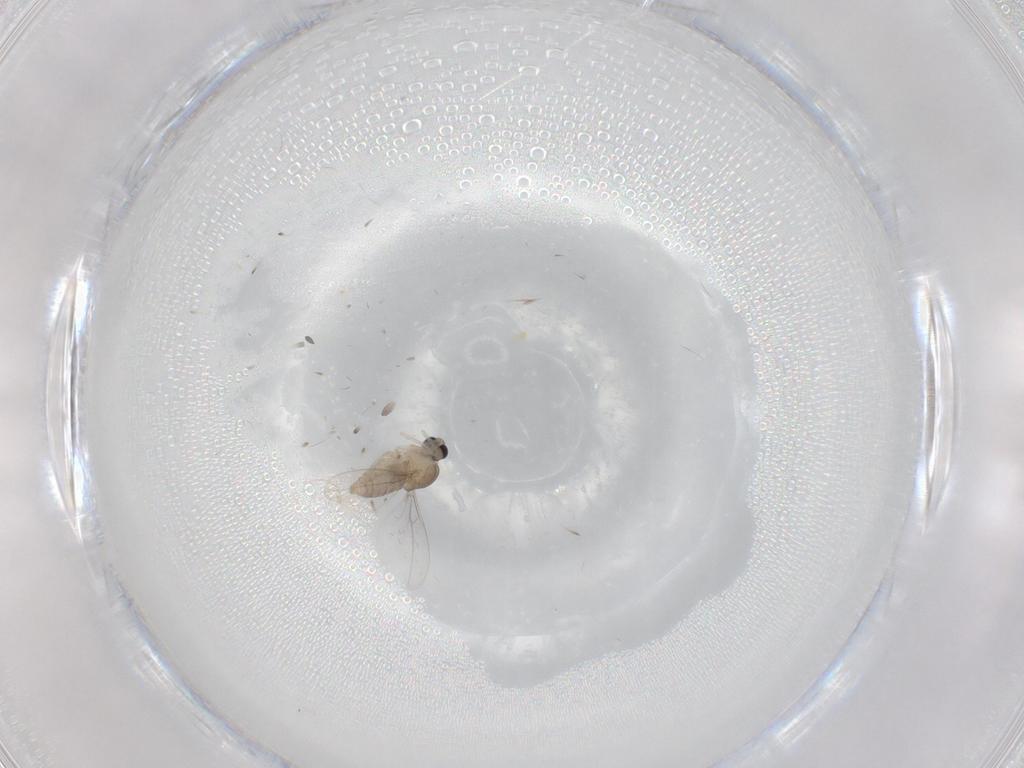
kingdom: Animalia
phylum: Arthropoda
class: Insecta
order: Diptera
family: Cecidomyiidae
